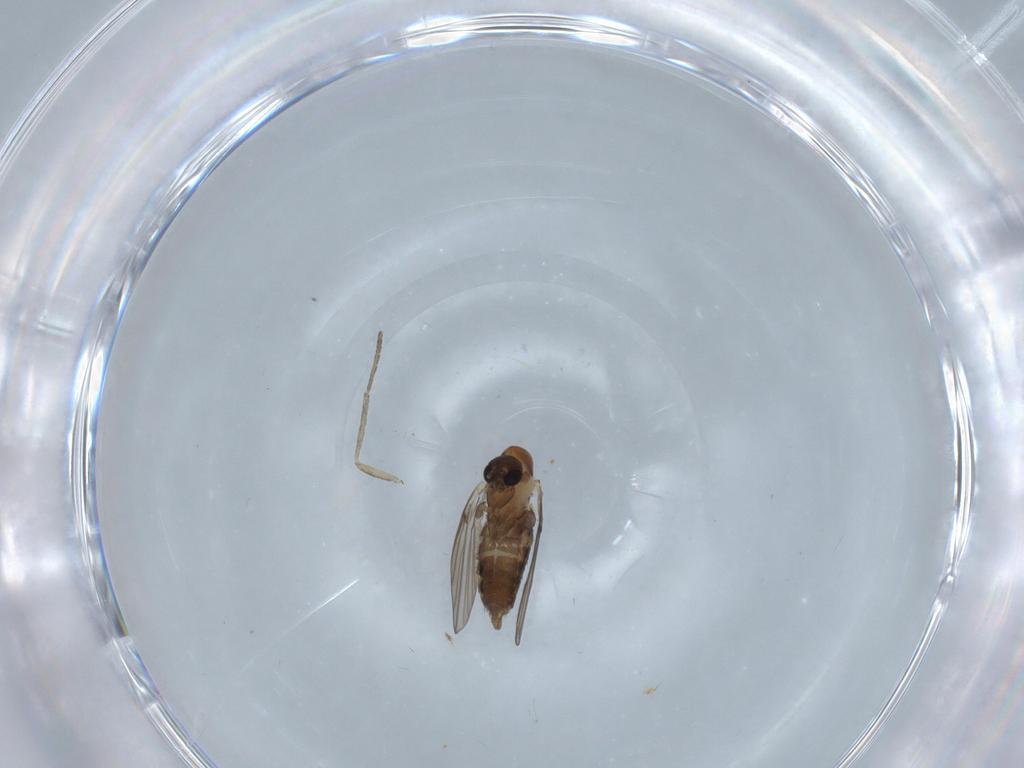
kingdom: Animalia
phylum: Arthropoda
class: Insecta
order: Diptera
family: Psychodidae
